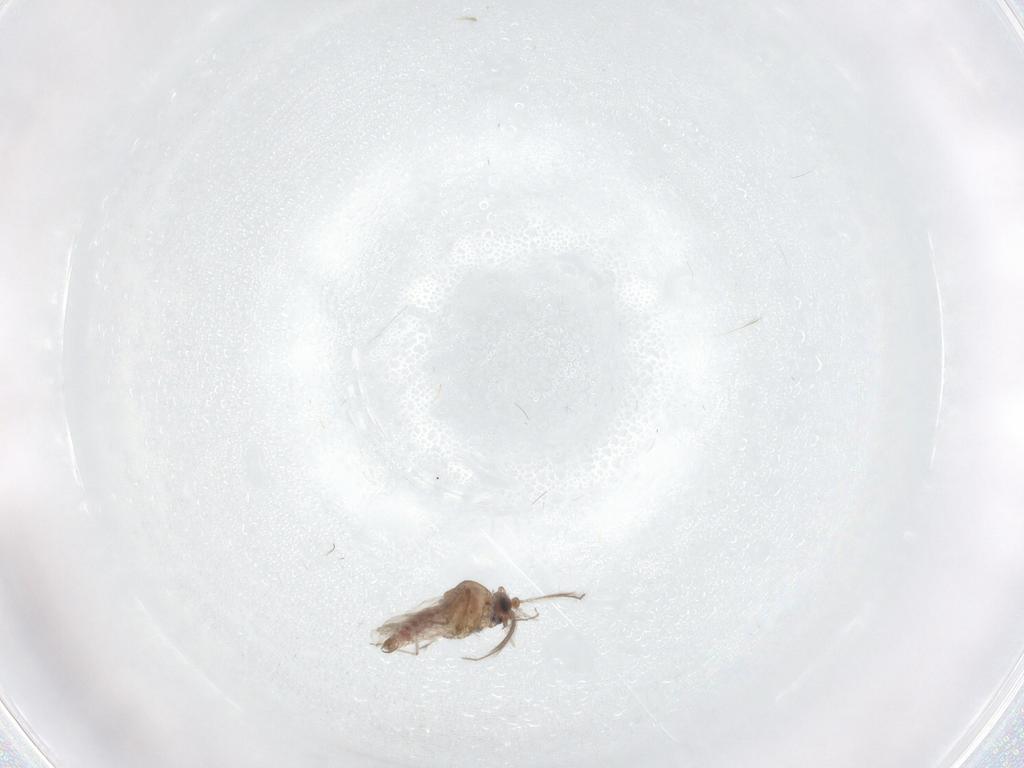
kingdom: Animalia
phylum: Arthropoda
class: Insecta
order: Diptera
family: Psychodidae
